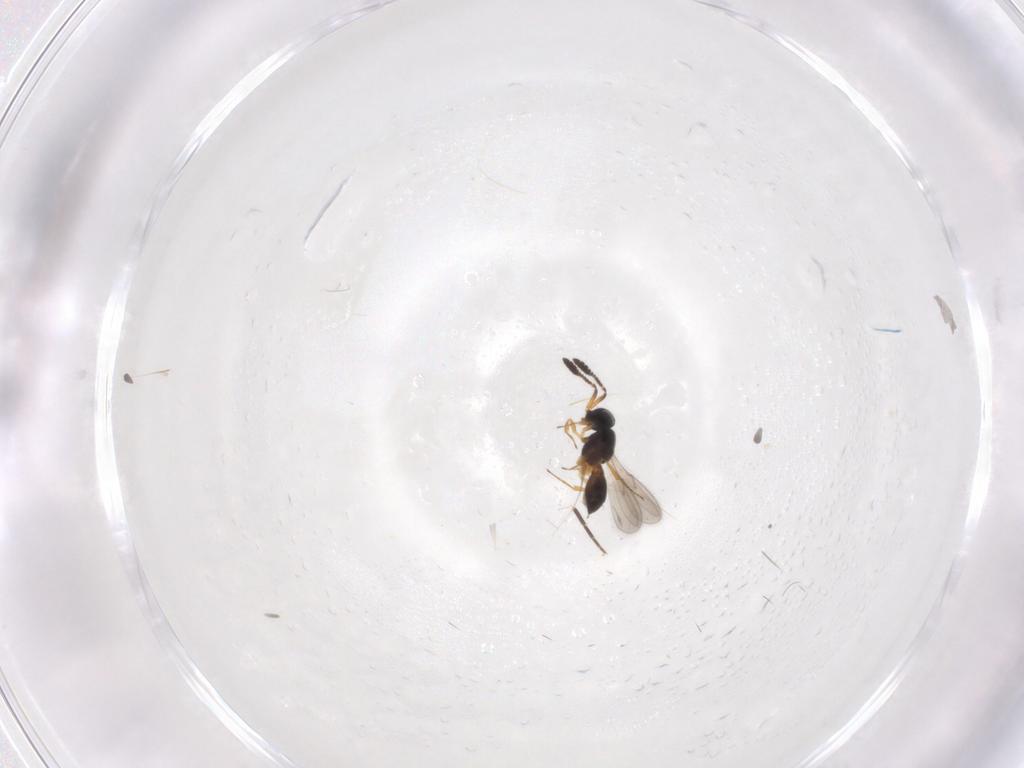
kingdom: Animalia
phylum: Arthropoda
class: Insecta
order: Hymenoptera
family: Scelionidae
